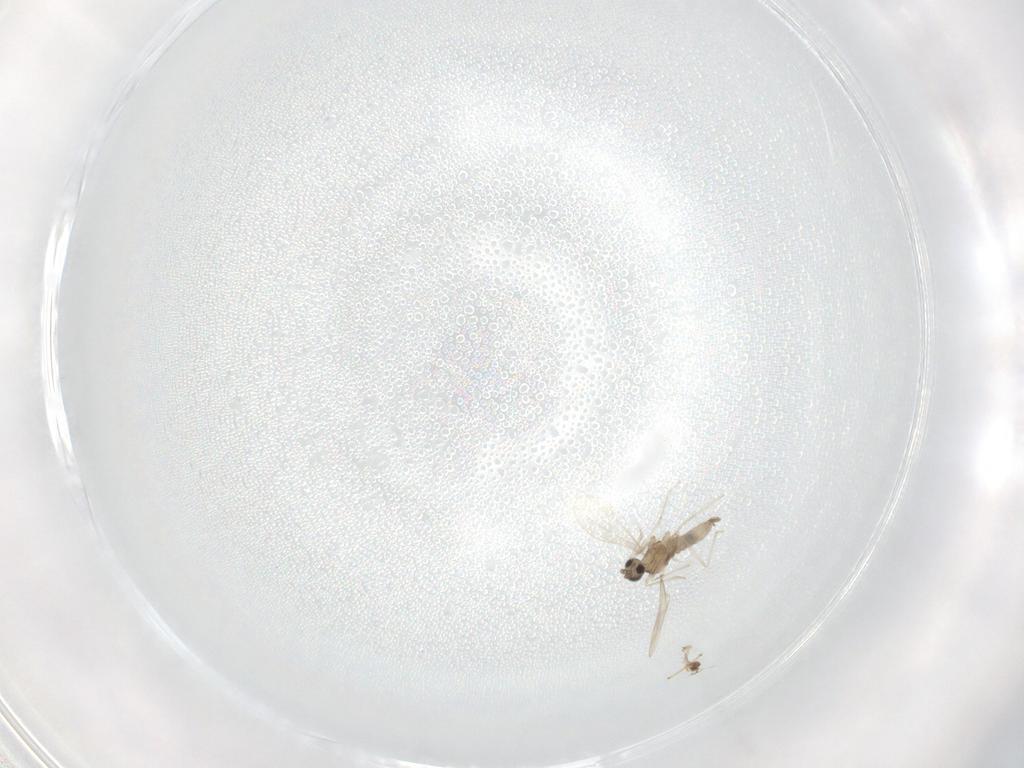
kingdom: Animalia
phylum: Arthropoda
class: Insecta
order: Diptera
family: Cecidomyiidae
